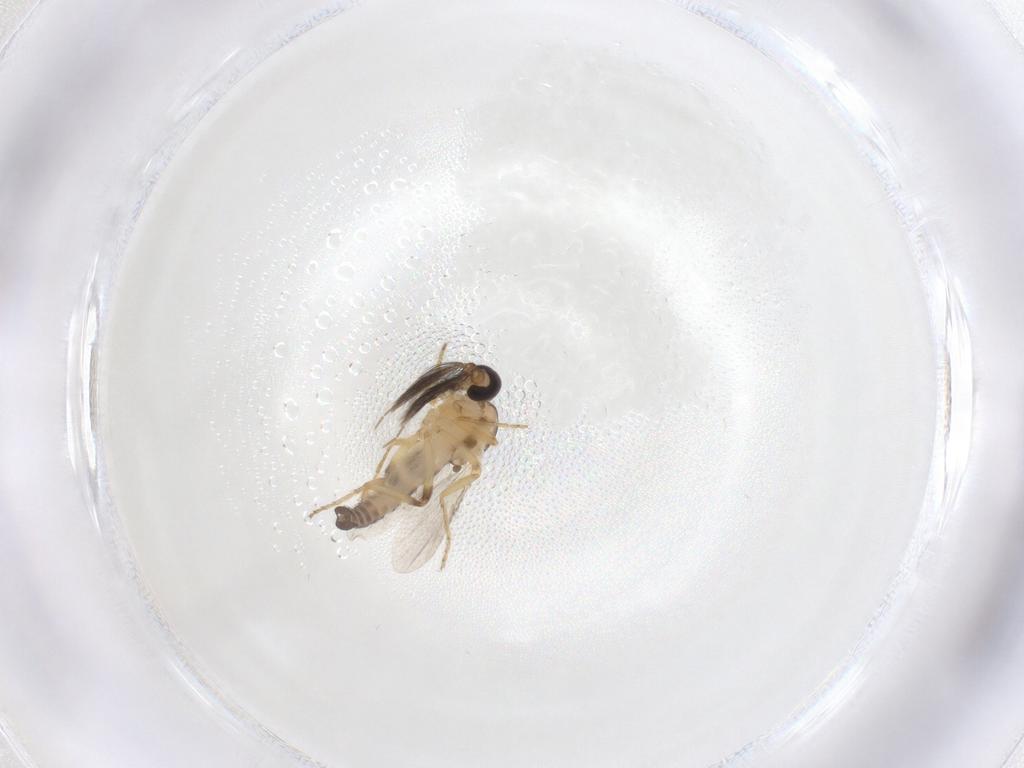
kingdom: Animalia
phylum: Arthropoda
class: Insecta
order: Diptera
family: Ceratopogonidae
